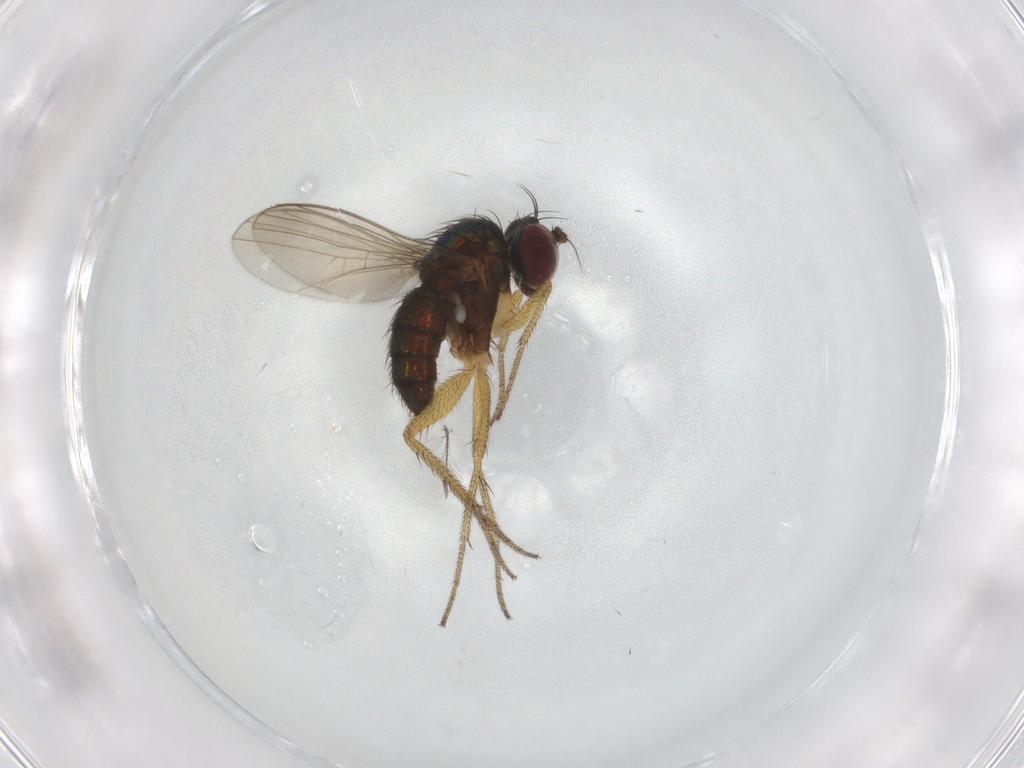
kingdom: Animalia
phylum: Arthropoda
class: Insecta
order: Diptera
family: Dolichopodidae
